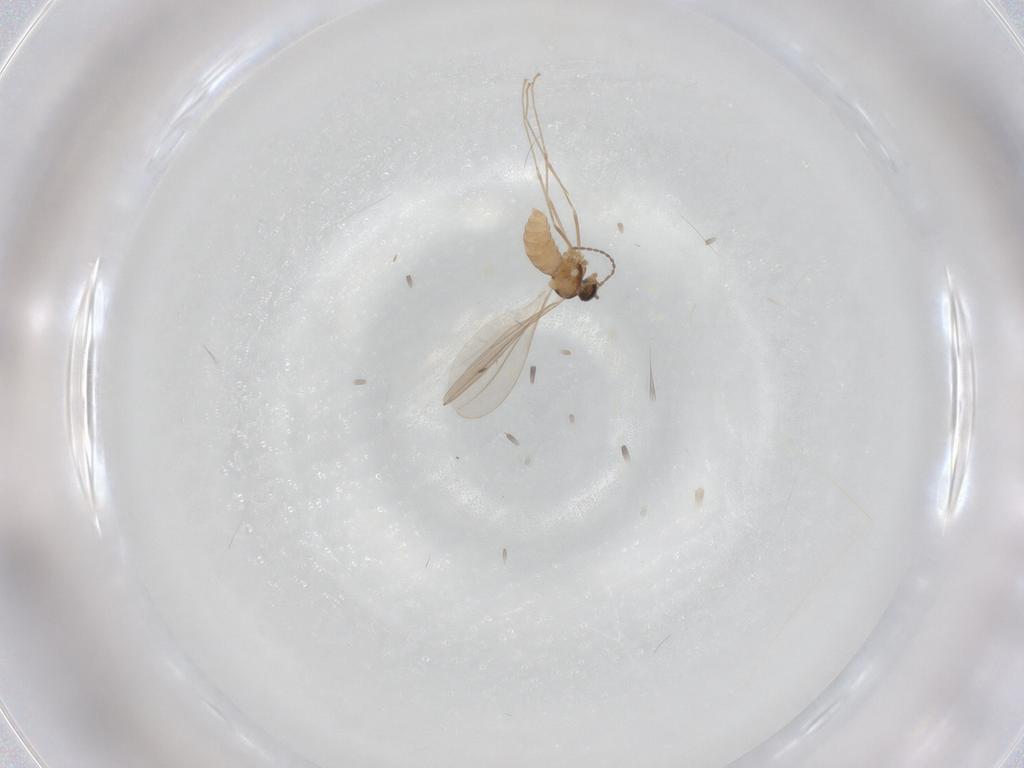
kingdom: Animalia
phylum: Arthropoda
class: Insecta
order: Diptera
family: Cecidomyiidae
